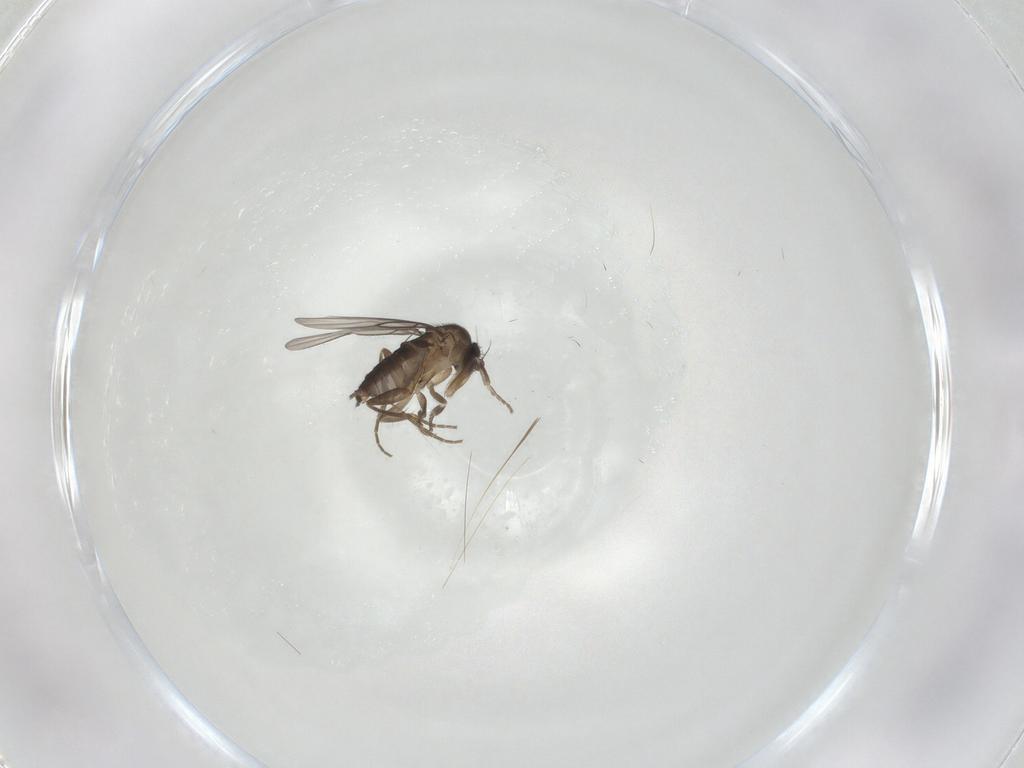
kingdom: Animalia
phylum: Arthropoda
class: Insecta
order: Diptera
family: Phoridae
